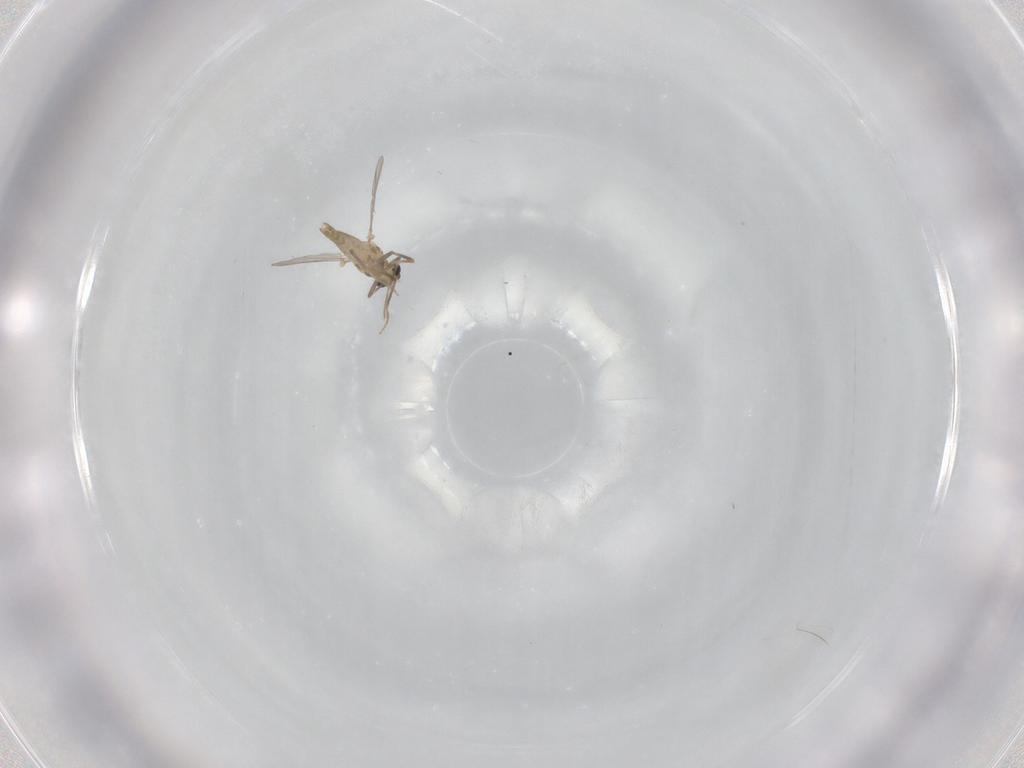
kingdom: Animalia
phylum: Arthropoda
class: Insecta
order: Diptera
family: Chironomidae
